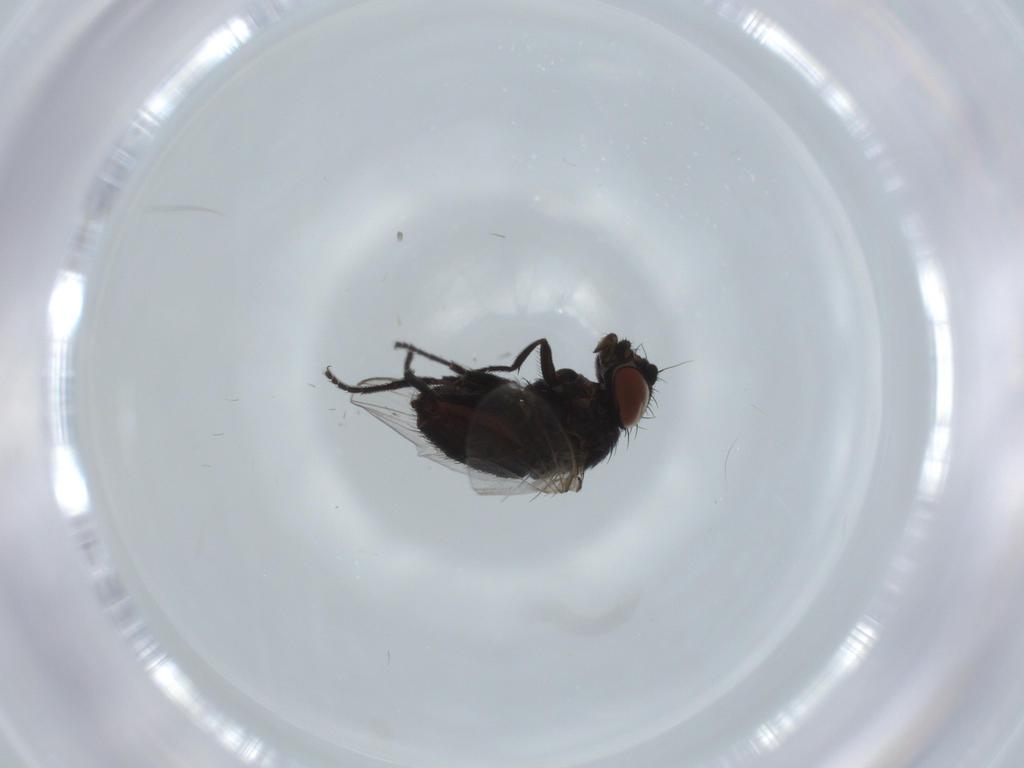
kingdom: Animalia
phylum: Arthropoda
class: Insecta
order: Diptera
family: Milichiidae
